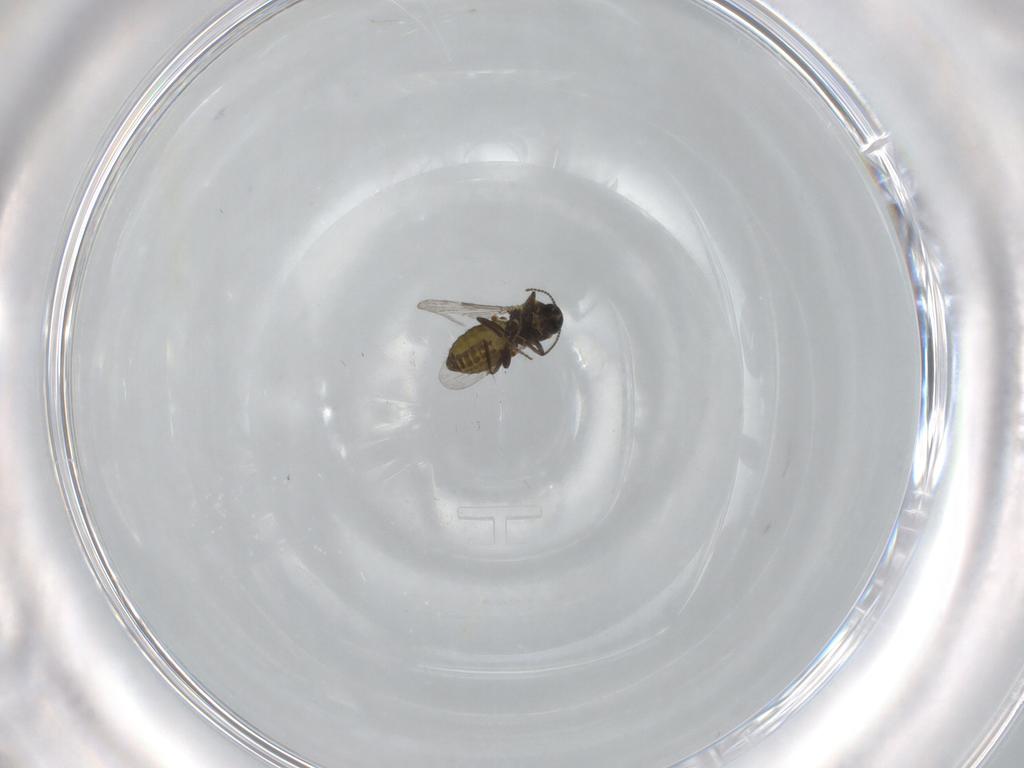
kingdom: Animalia
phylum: Arthropoda
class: Insecta
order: Diptera
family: Ceratopogonidae
